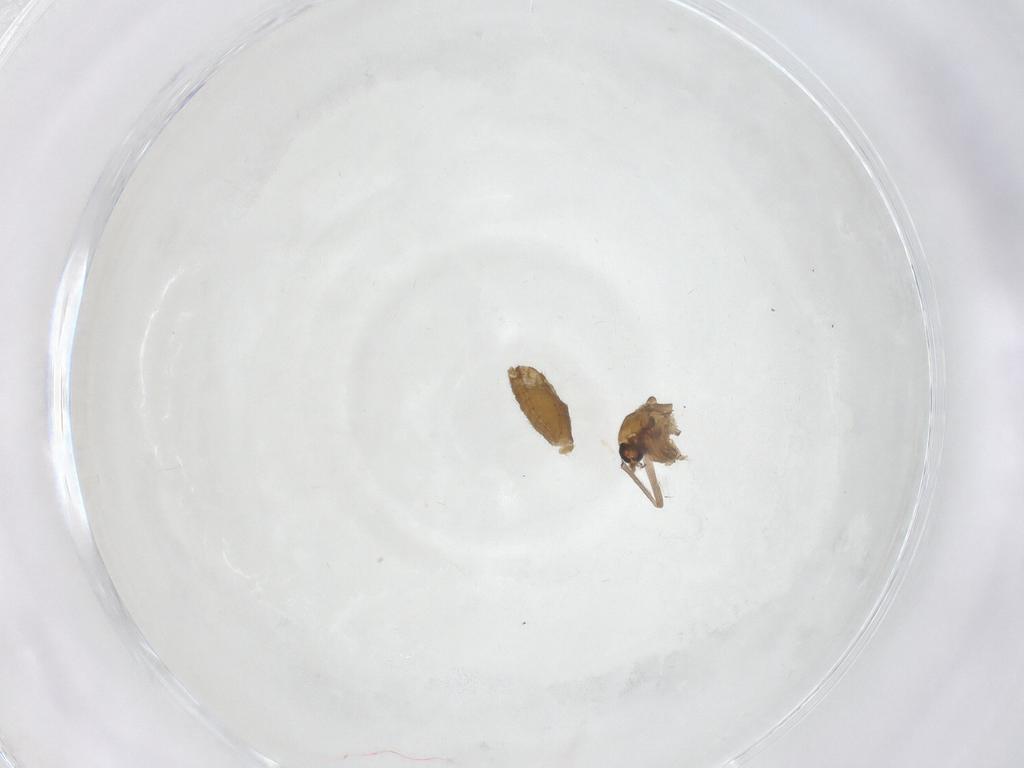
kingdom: Animalia
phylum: Arthropoda
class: Insecta
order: Diptera
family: Chironomidae
